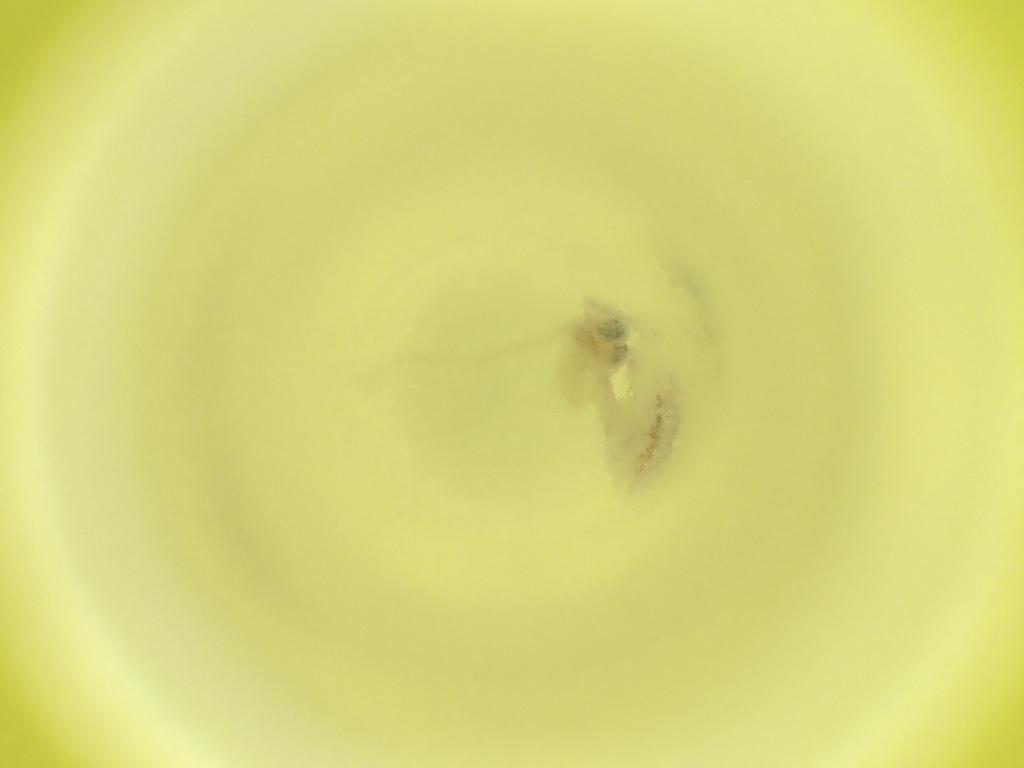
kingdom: Animalia
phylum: Arthropoda
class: Insecta
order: Diptera
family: Cecidomyiidae
